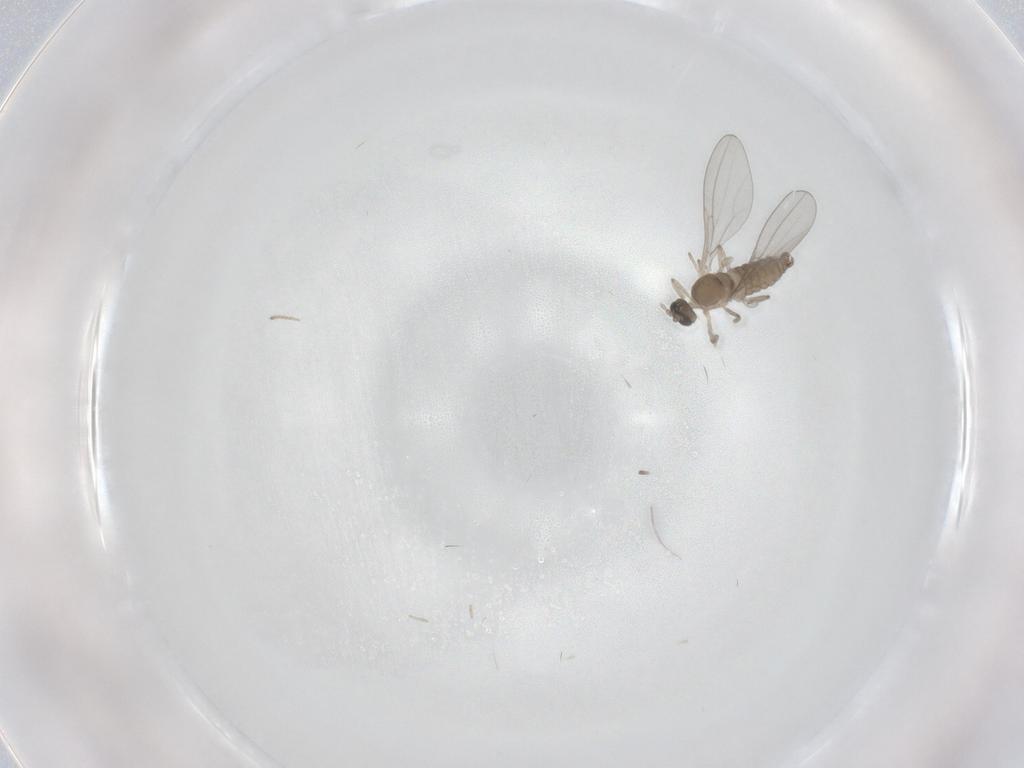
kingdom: Animalia
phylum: Arthropoda
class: Insecta
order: Diptera
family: Cecidomyiidae
